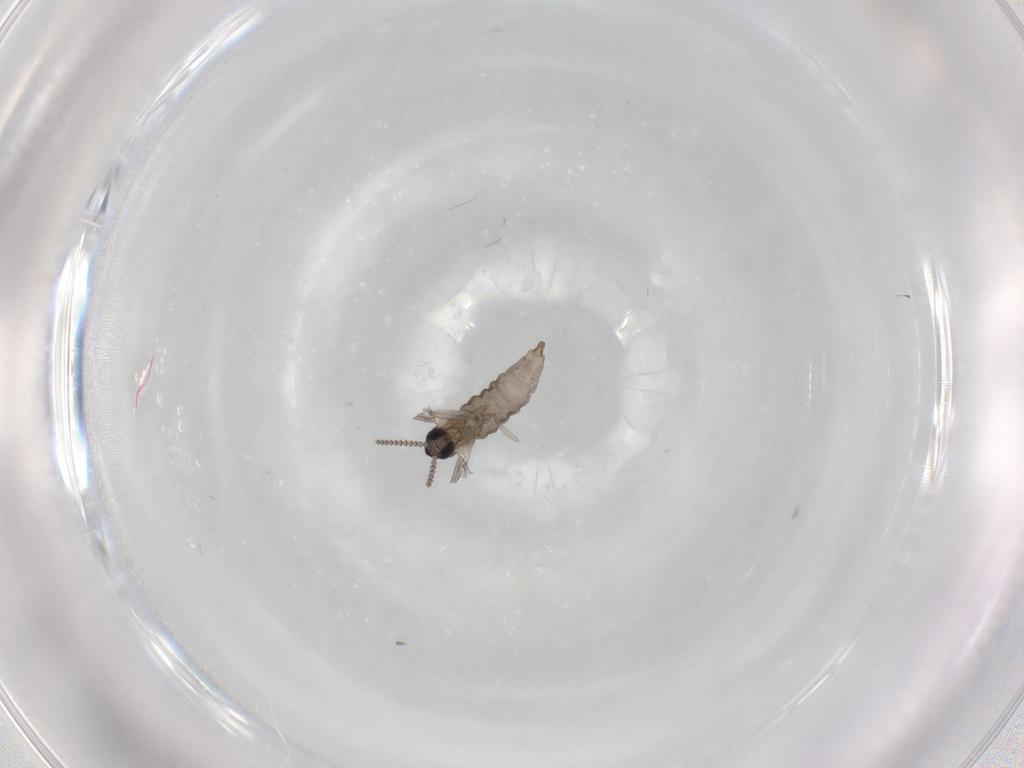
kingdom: Animalia
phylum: Arthropoda
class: Insecta
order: Diptera
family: Cecidomyiidae
